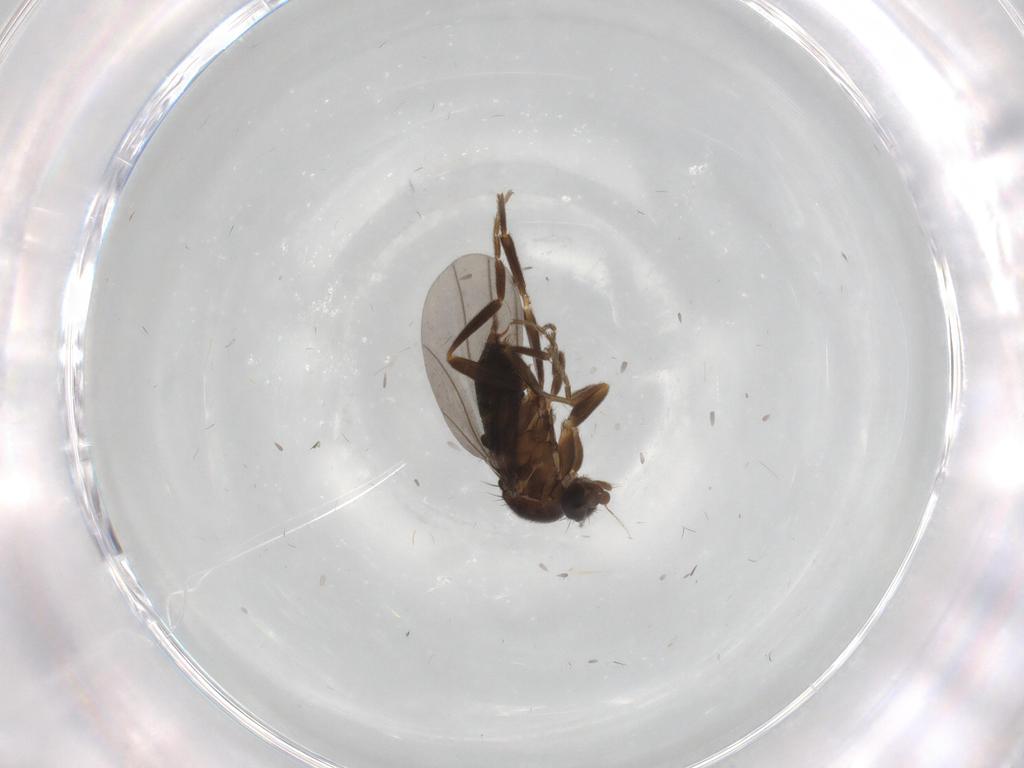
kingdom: Animalia
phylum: Arthropoda
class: Insecta
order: Diptera
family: Phoridae
